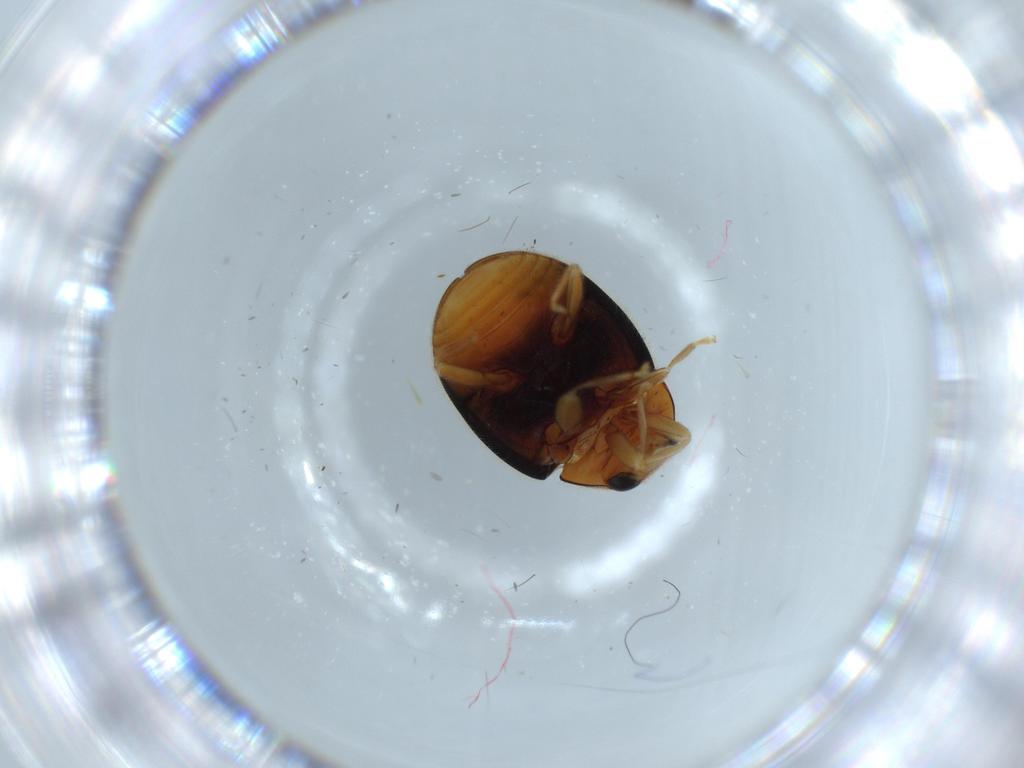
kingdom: Animalia
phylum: Arthropoda
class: Insecta
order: Coleoptera
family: Coccinellidae
